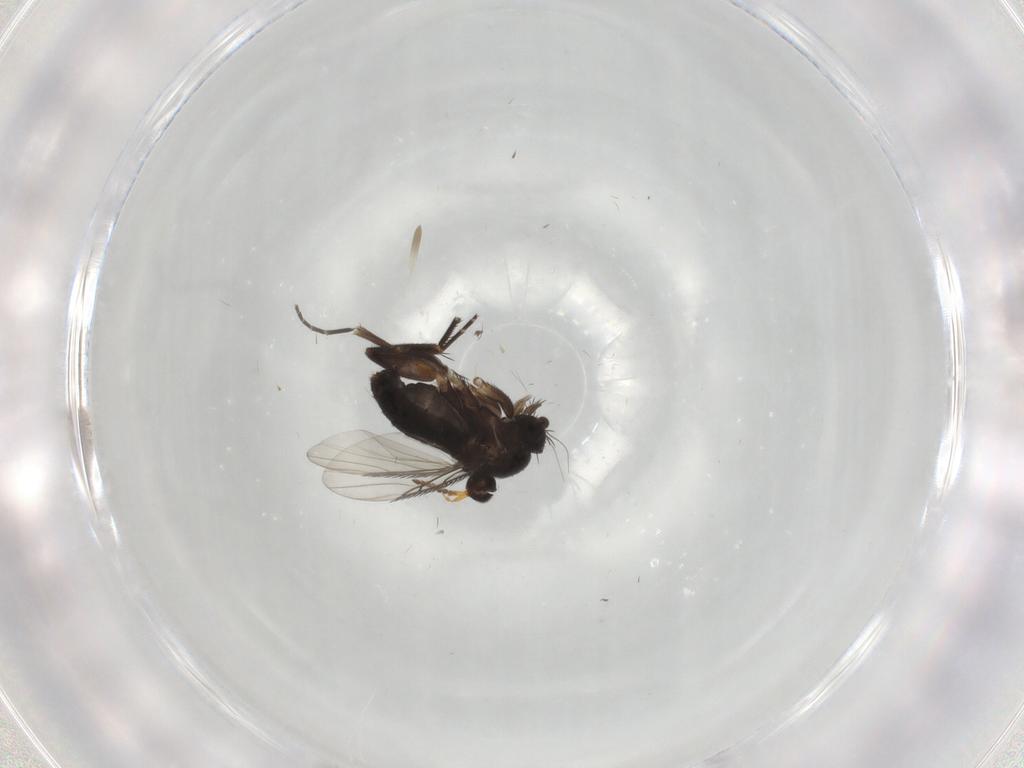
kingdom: Animalia
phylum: Arthropoda
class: Insecta
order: Diptera
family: Phoridae
